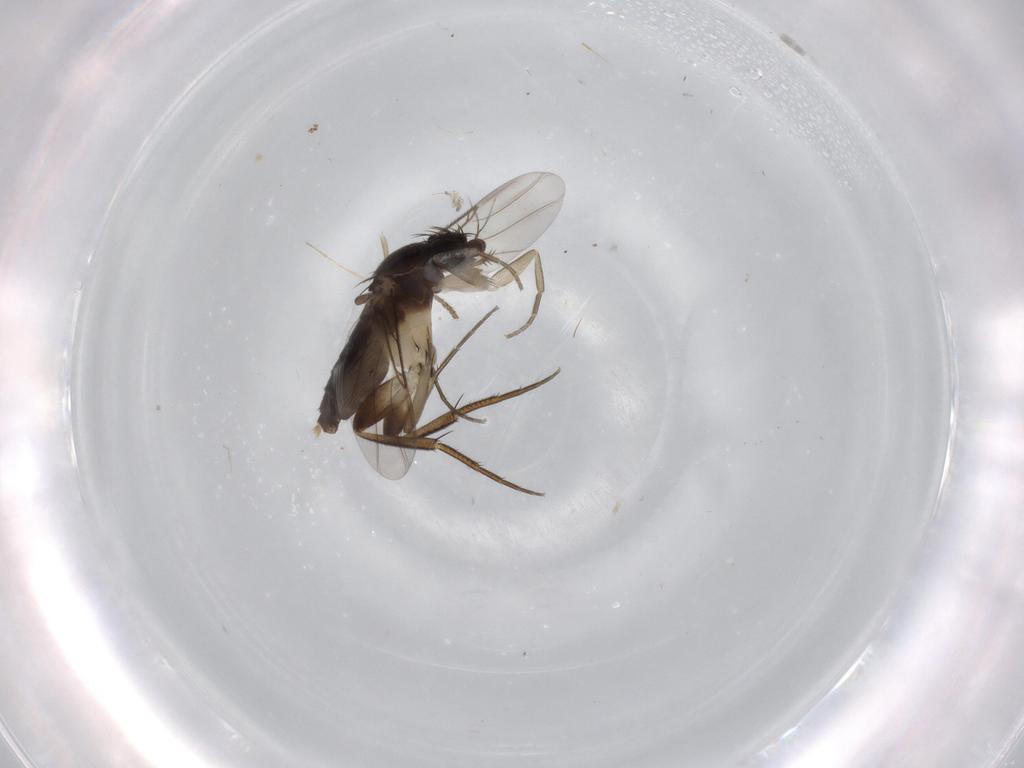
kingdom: Animalia
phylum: Arthropoda
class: Insecta
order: Diptera
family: Phoridae
